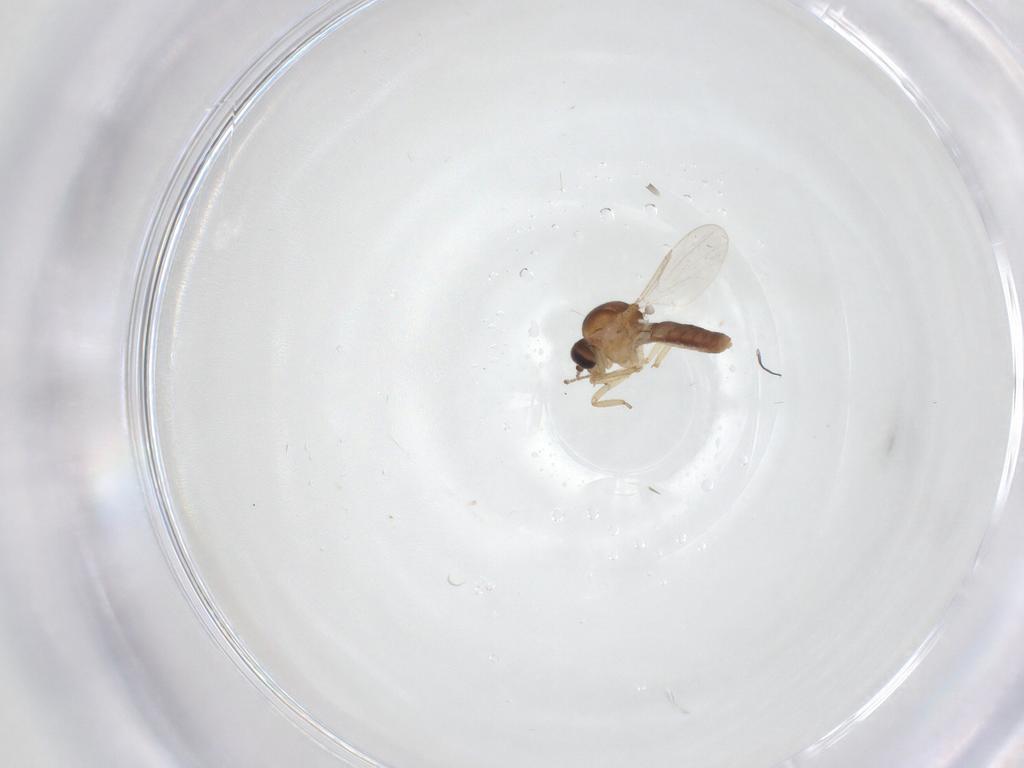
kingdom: Animalia
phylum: Arthropoda
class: Insecta
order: Diptera
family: Ceratopogonidae
